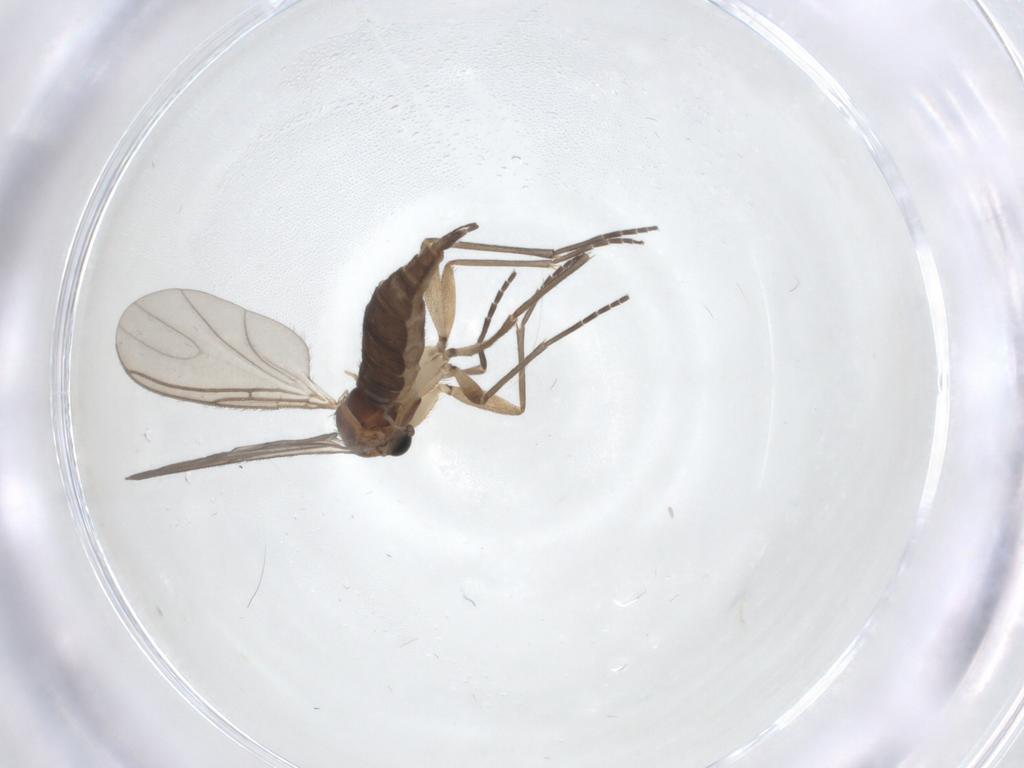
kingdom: Animalia
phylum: Arthropoda
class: Insecta
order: Diptera
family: Sciaridae
